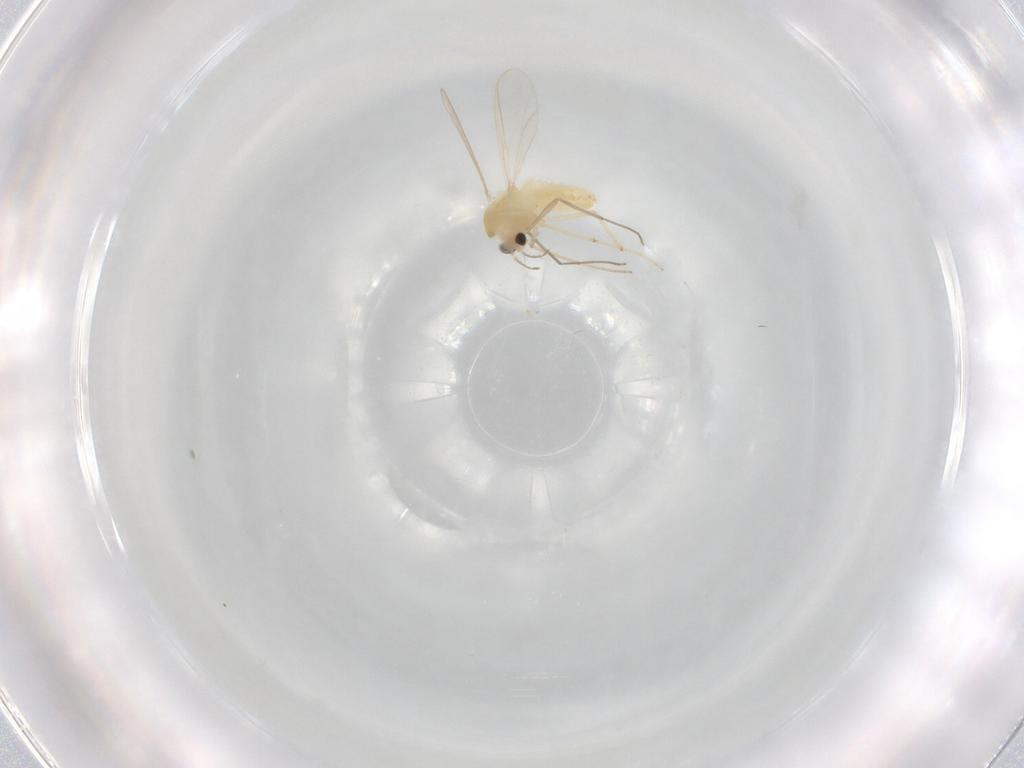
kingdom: Animalia
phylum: Arthropoda
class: Insecta
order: Diptera
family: Chironomidae
